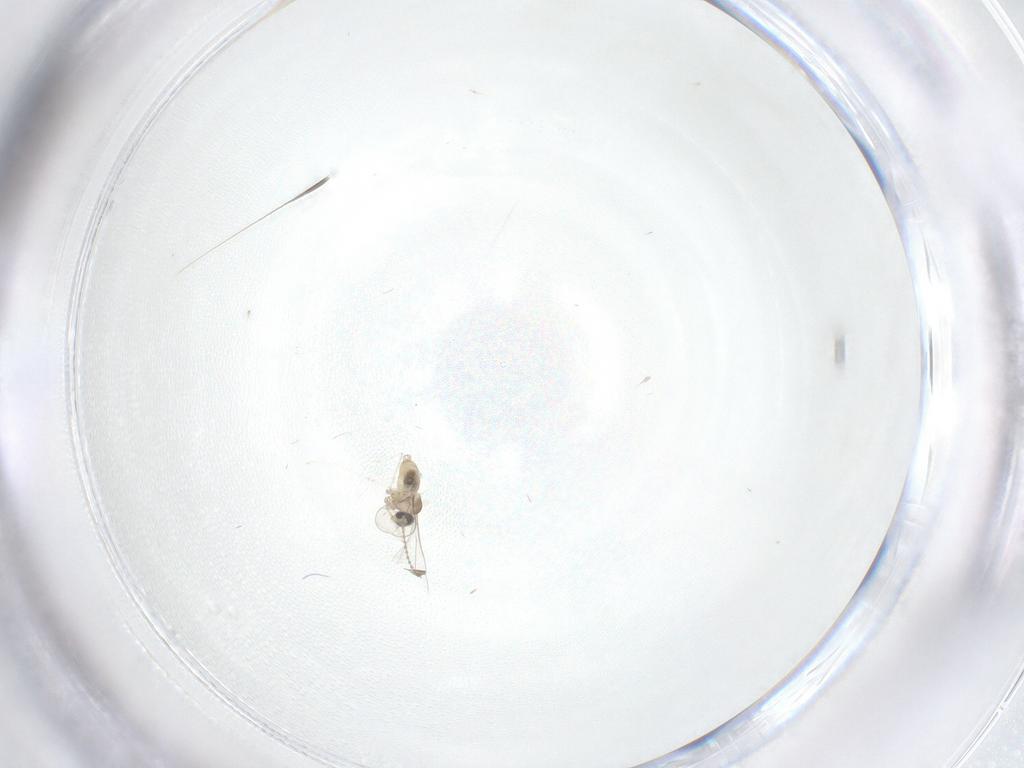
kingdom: Animalia
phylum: Arthropoda
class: Insecta
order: Diptera
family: Cecidomyiidae
